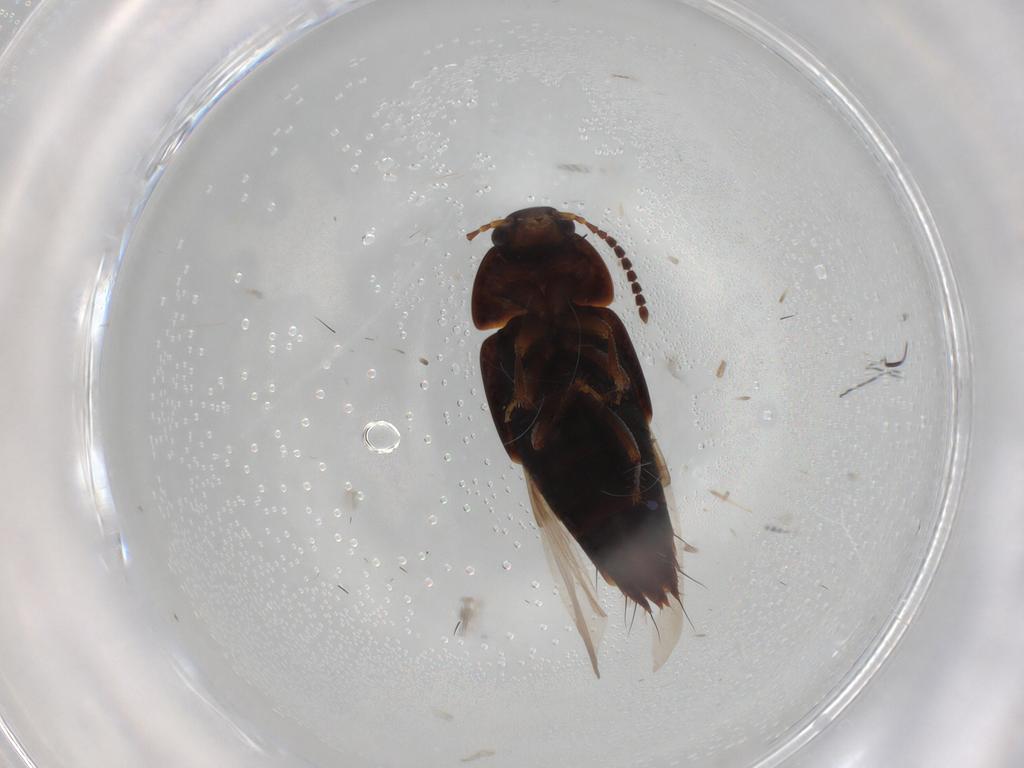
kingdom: Animalia
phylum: Arthropoda
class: Insecta
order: Coleoptera
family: Staphylinidae
